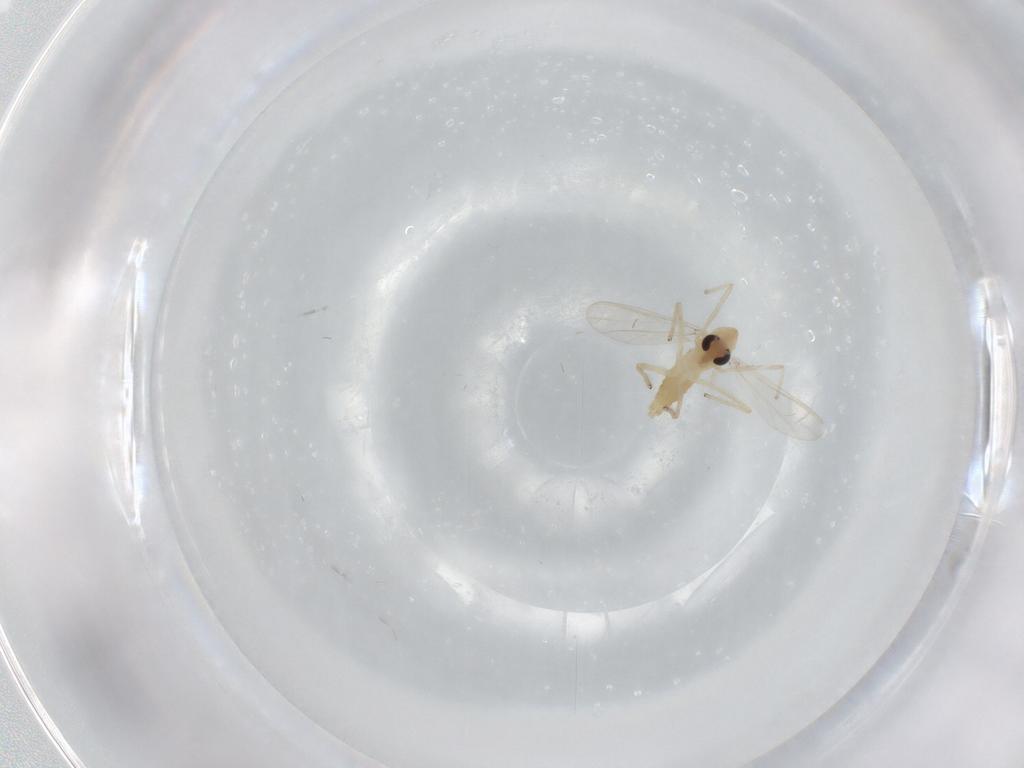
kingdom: Animalia
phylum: Arthropoda
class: Insecta
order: Diptera
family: Chironomidae
